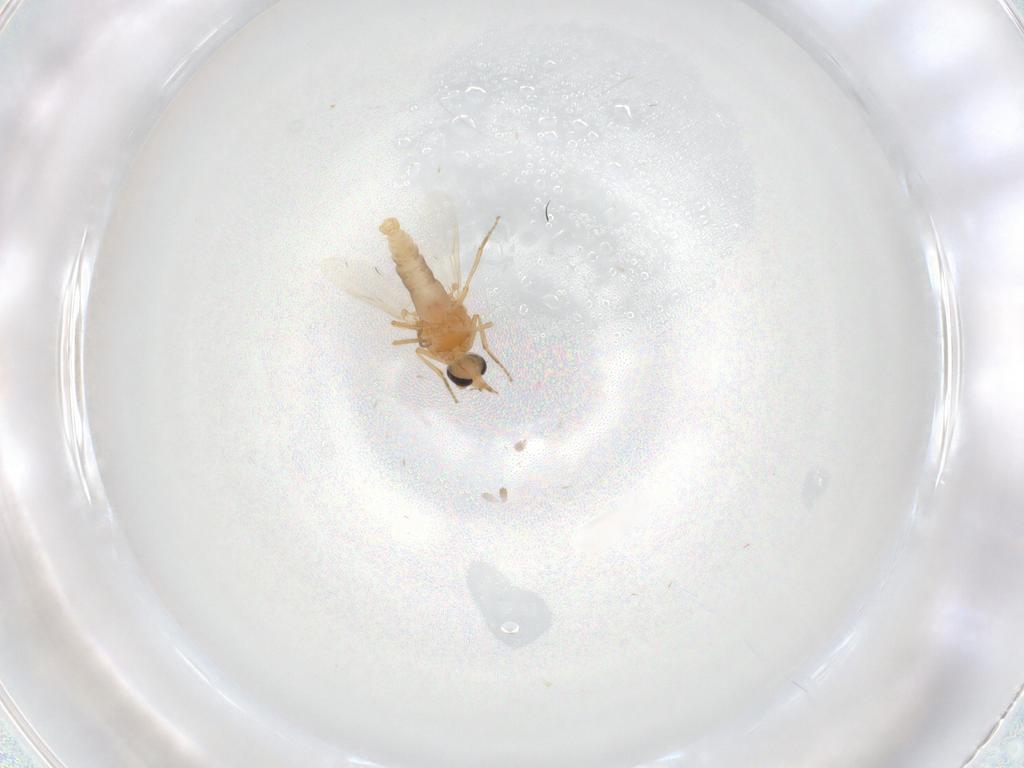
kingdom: Animalia
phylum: Arthropoda
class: Insecta
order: Diptera
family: Ceratopogonidae
